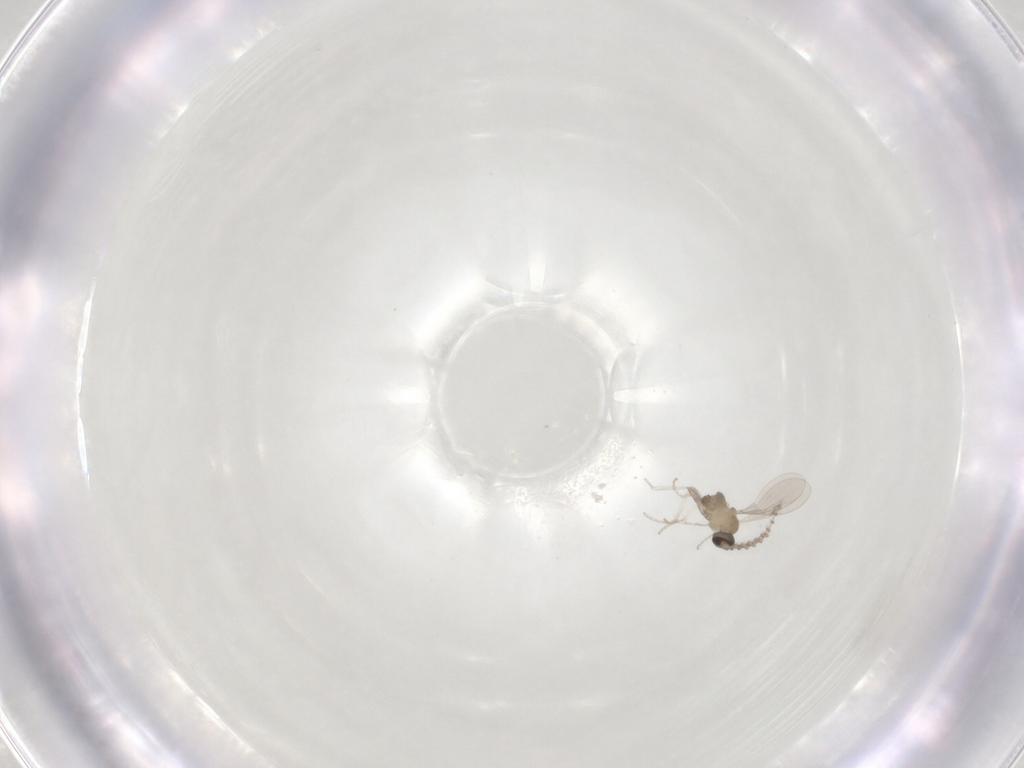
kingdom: Animalia
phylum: Arthropoda
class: Insecta
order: Diptera
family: Cecidomyiidae
